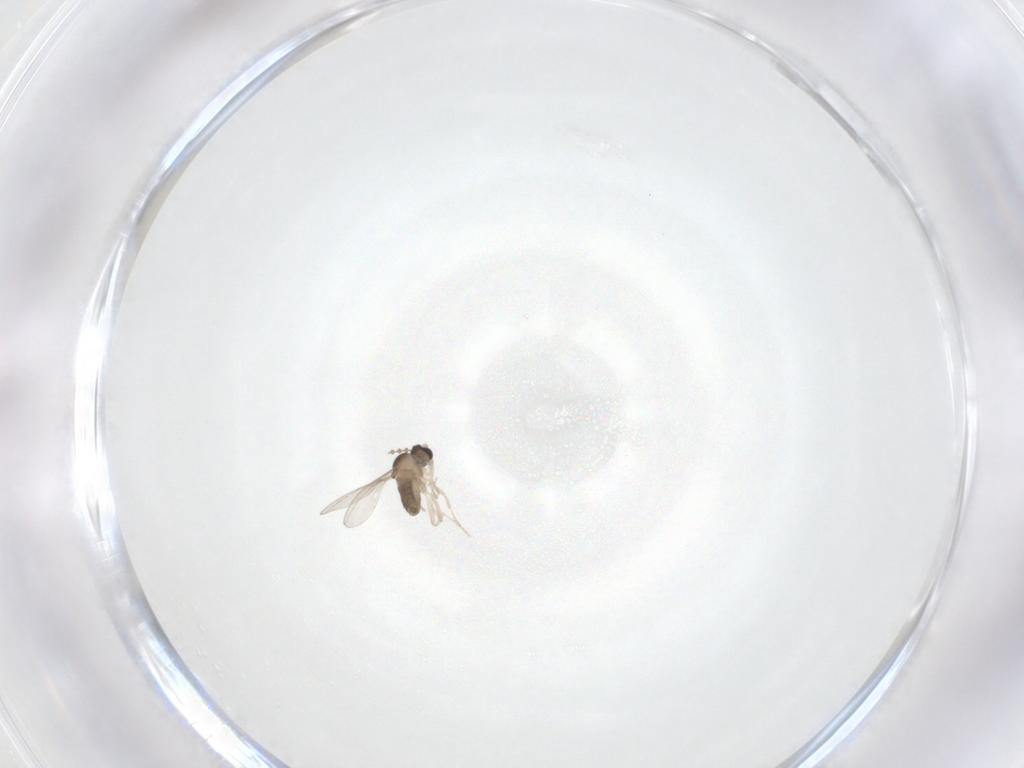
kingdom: Animalia
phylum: Arthropoda
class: Insecta
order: Diptera
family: Cecidomyiidae
